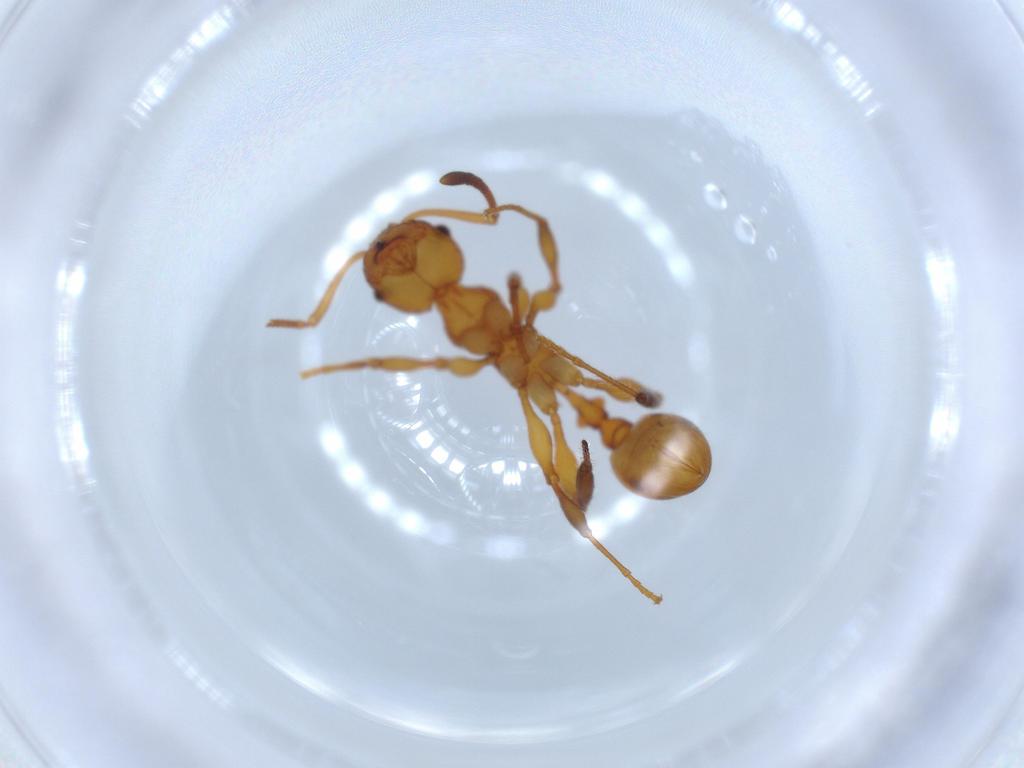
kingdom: Animalia
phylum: Arthropoda
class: Insecta
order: Hymenoptera
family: Formicidae
